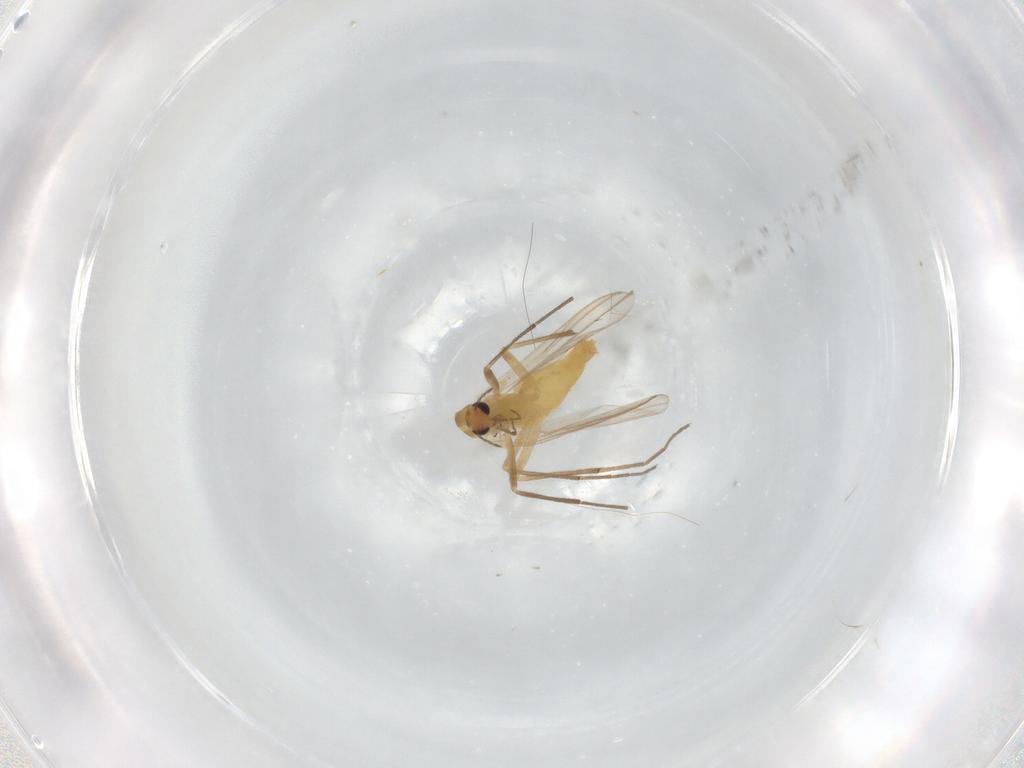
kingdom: Animalia
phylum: Arthropoda
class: Insecta
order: Diptera
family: Chironomidae
